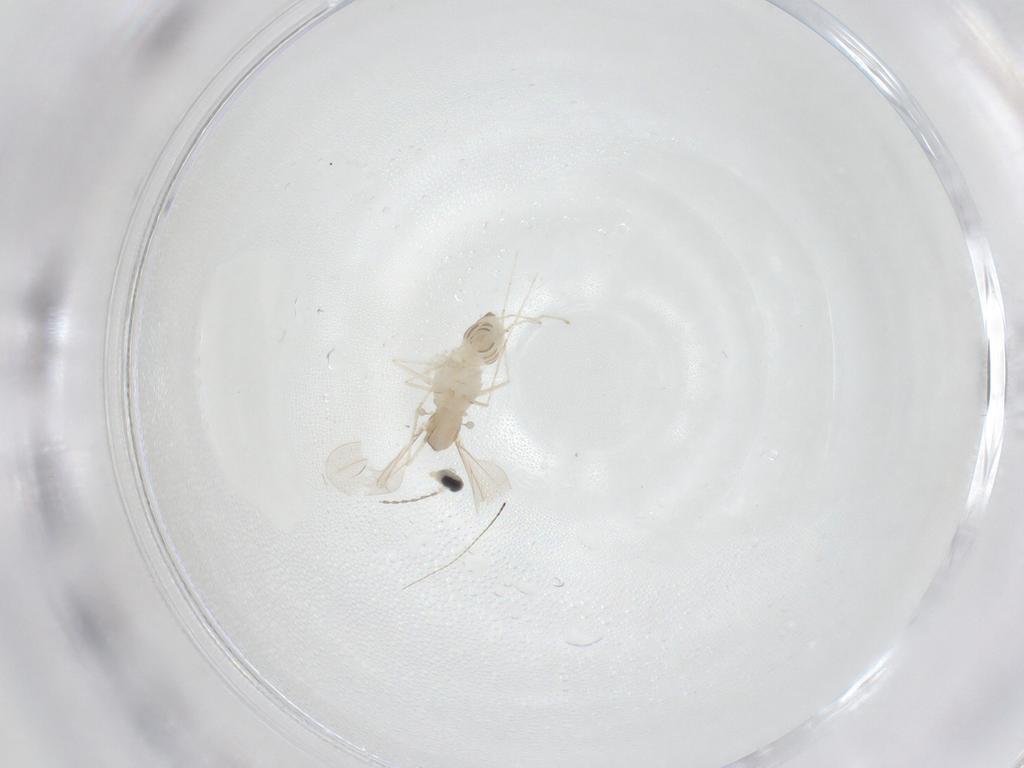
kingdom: Animalia
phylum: Arthropoda
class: Insecta
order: Diptera
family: Cecidomyiidae
